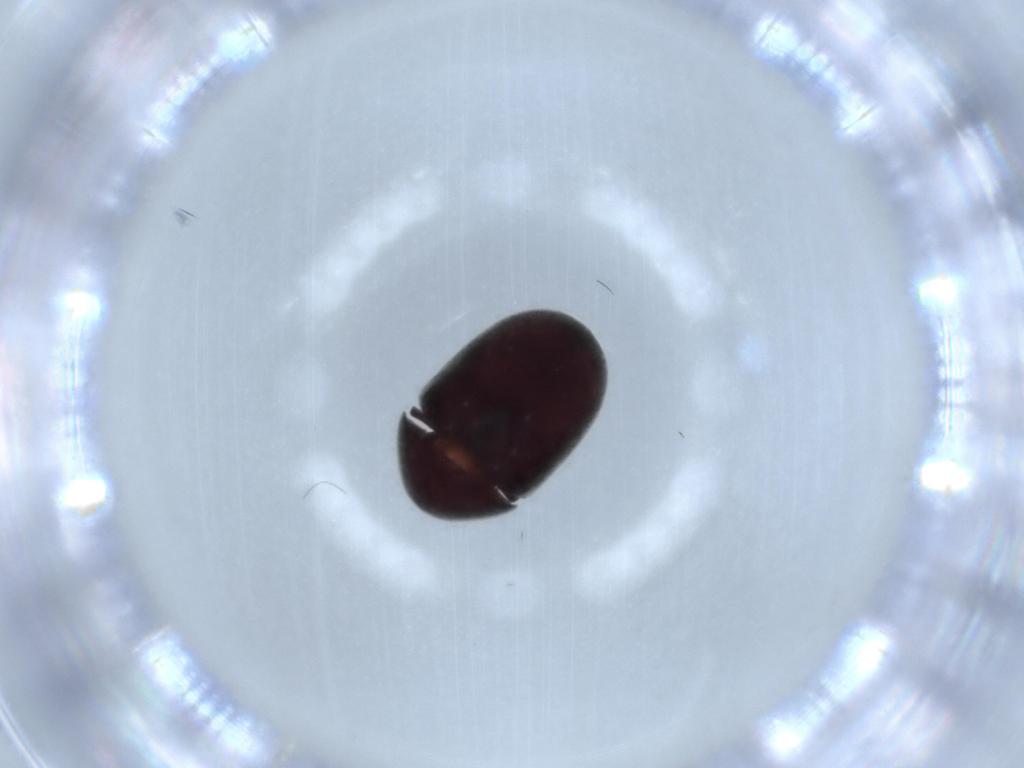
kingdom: Animalia
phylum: Arthropoda
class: Insecta
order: Coleoptera
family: Ptinidae
